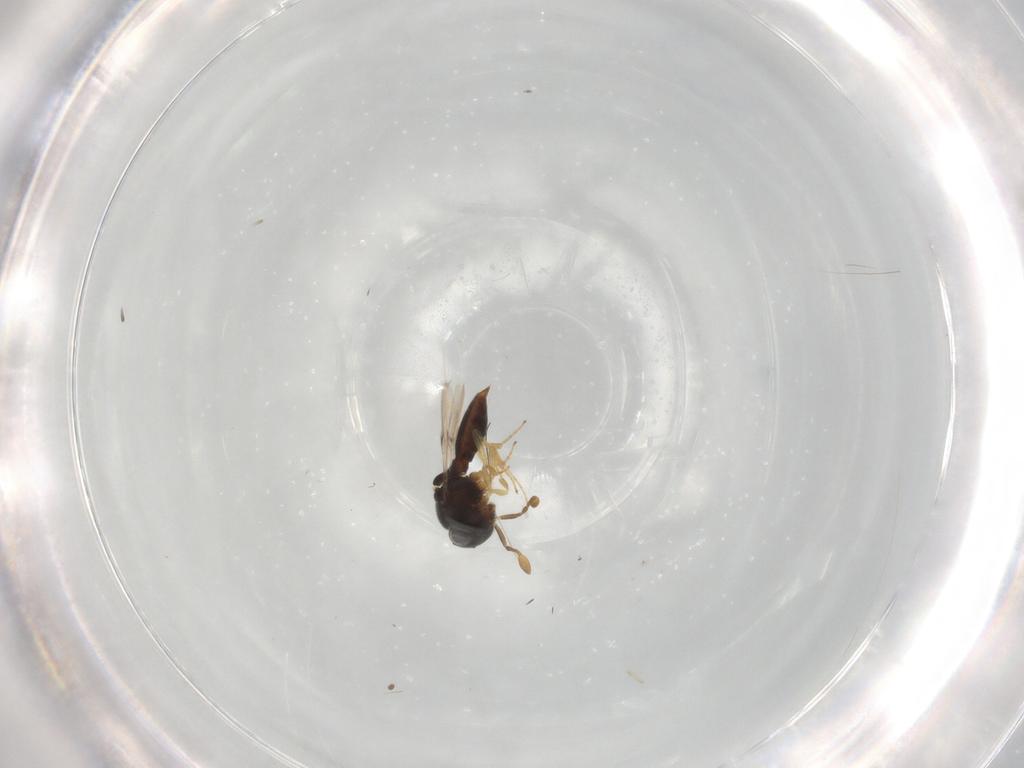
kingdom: Animalia
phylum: Arthropoda
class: Insecta
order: Hymenoptera
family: Scelionidae
